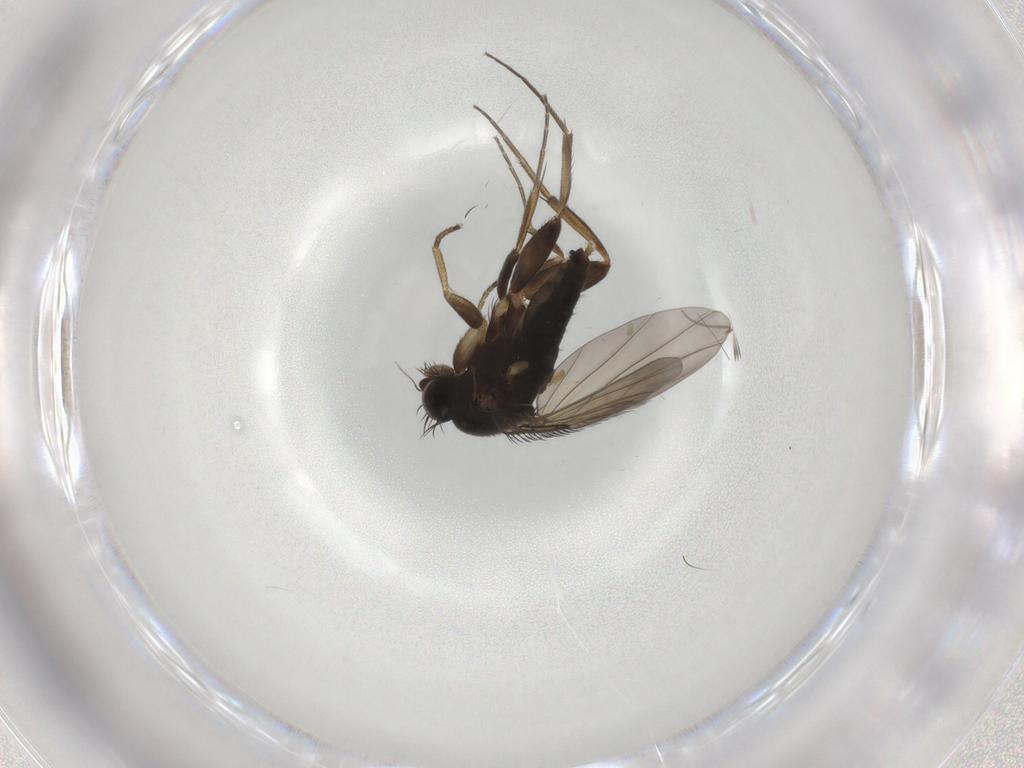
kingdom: Animalia
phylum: Arthropoda
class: Insecta
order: Diptera
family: Phoridae
